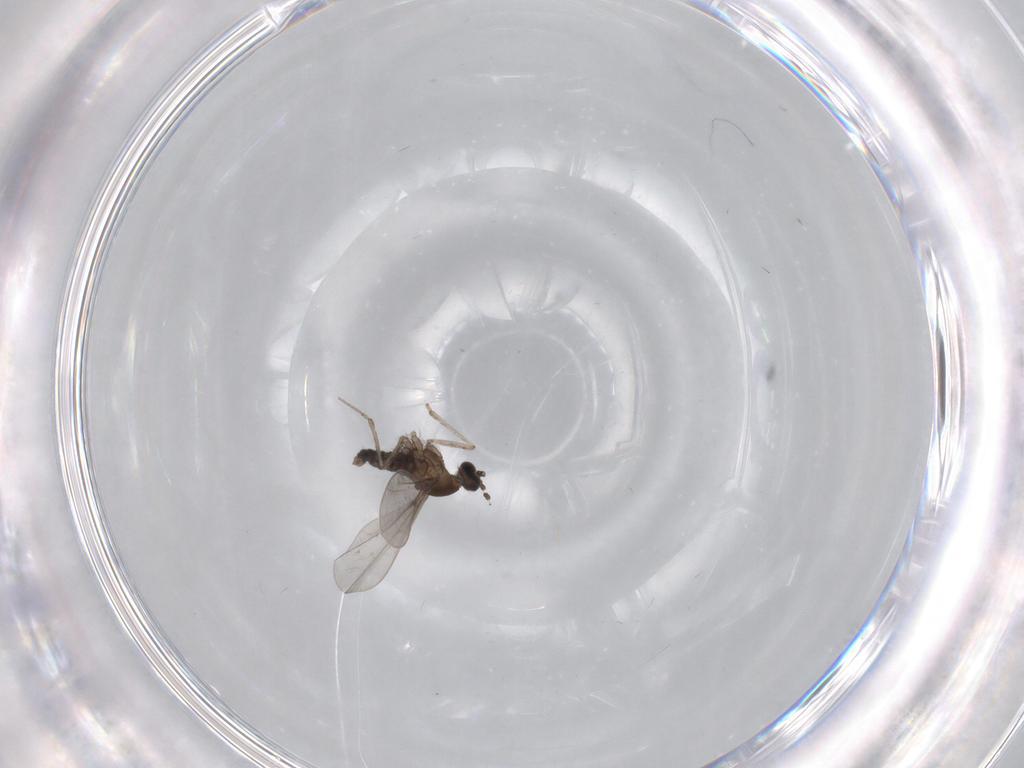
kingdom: Animalia
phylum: Arthropoda
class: Insecta
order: Diptera
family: Cecidomyiidae
